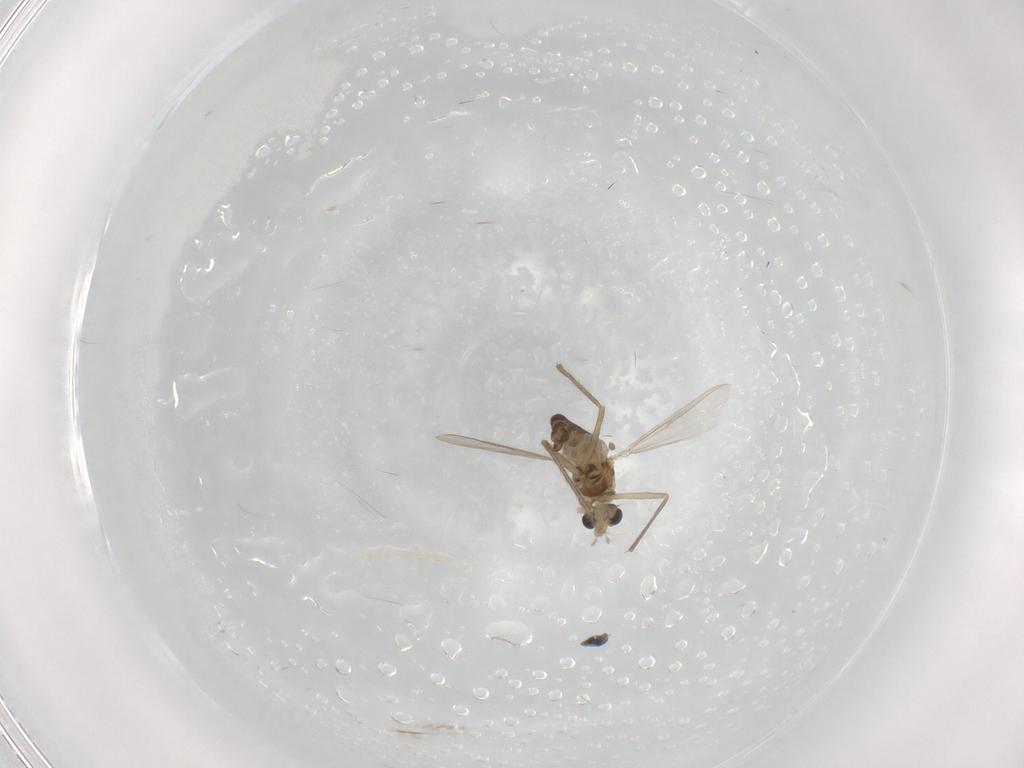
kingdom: Animalia
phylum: Arthropoda
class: Insecta
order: Diptera
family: Chironomidae
